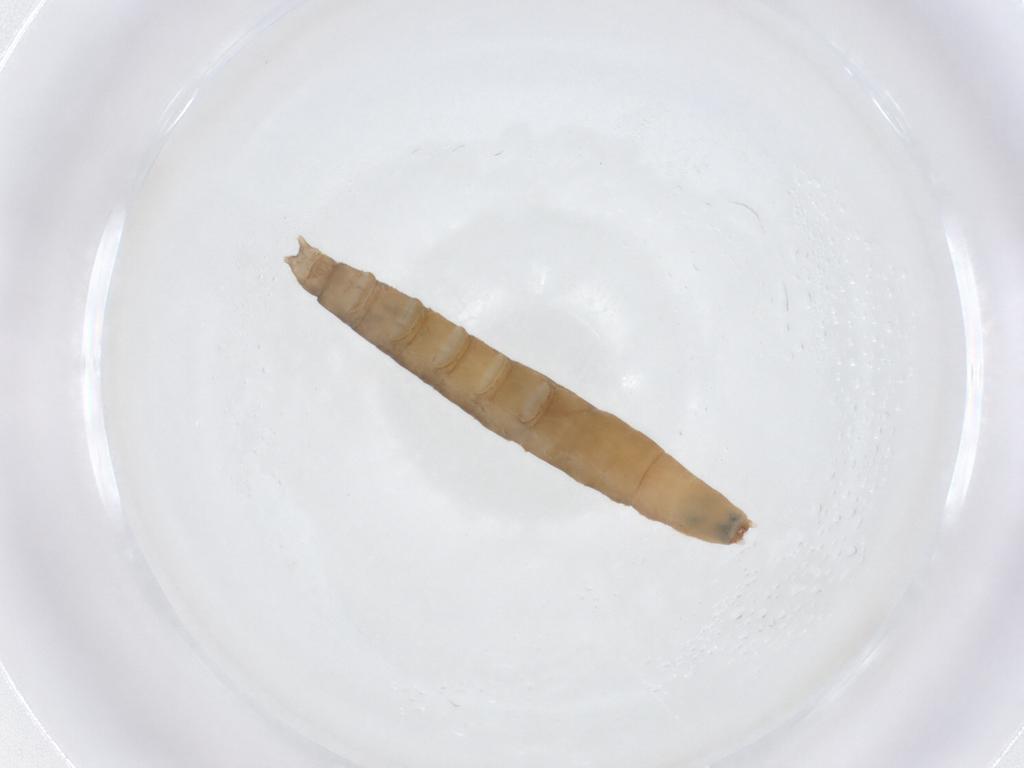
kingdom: Animalia
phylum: Arthropoda
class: Insecta
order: Diptera
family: Pediciidae
